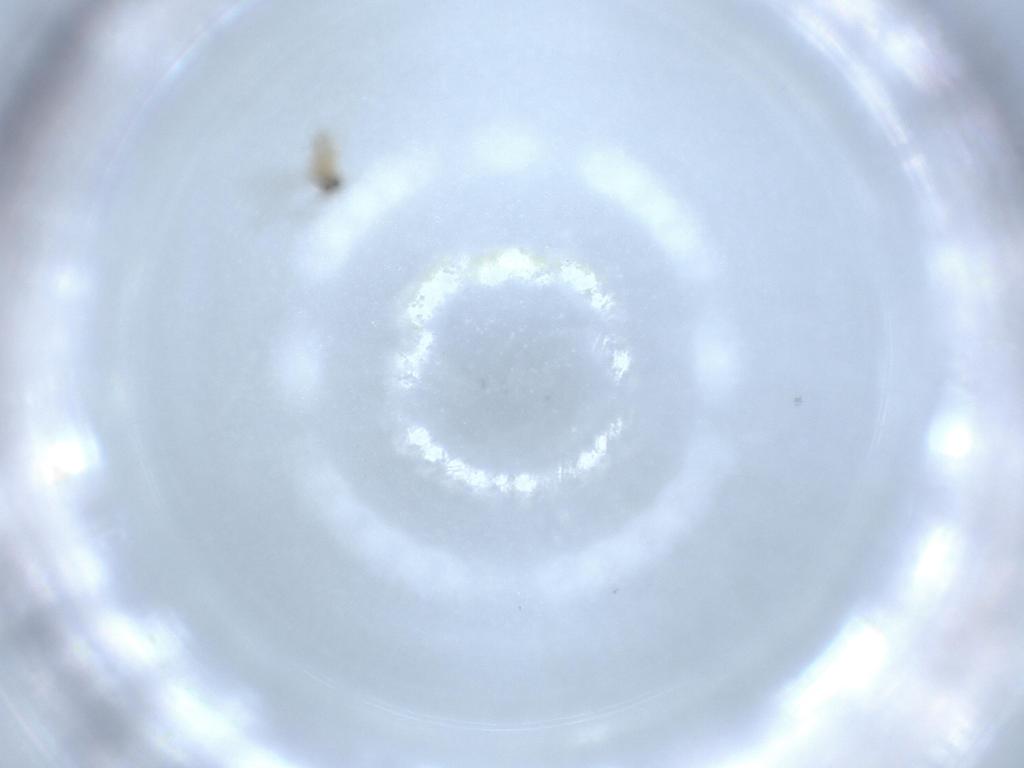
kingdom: Animalia
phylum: Arthropoda
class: Insecta
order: Diptera
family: Cecidomyiidae
